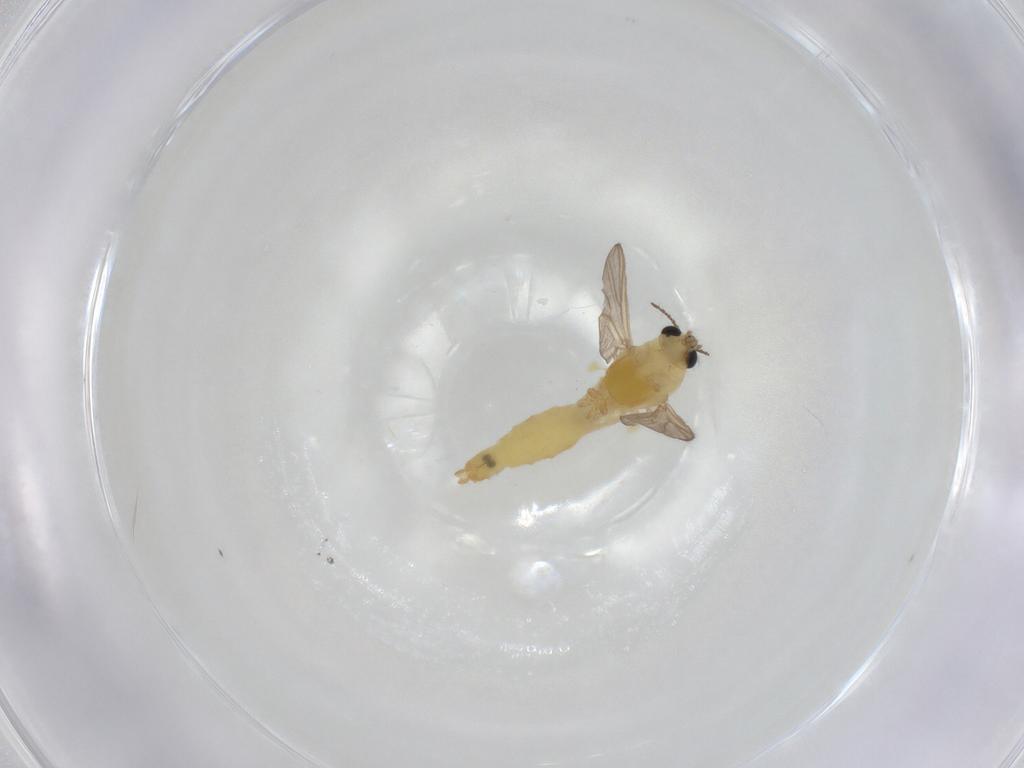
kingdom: Animalia
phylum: Arthropoda
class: Insecta
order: Diptera
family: Chironomidae
